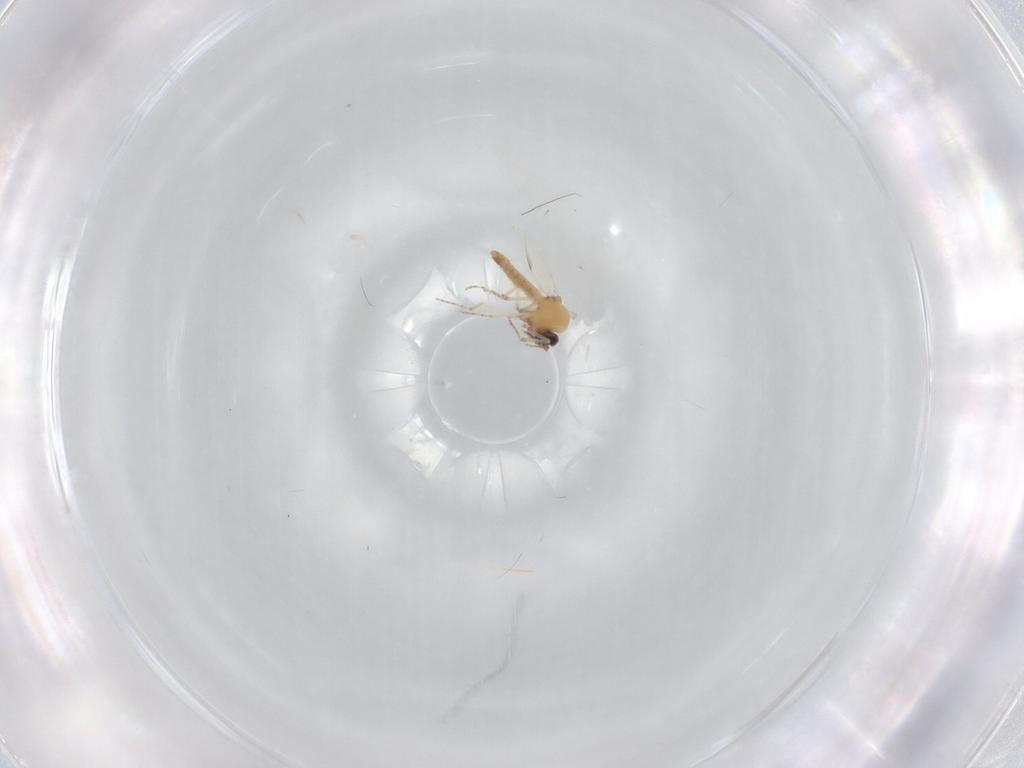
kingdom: Animalia
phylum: Arthropoda
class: Insecta
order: Diptera
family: Ceratopogonidae
